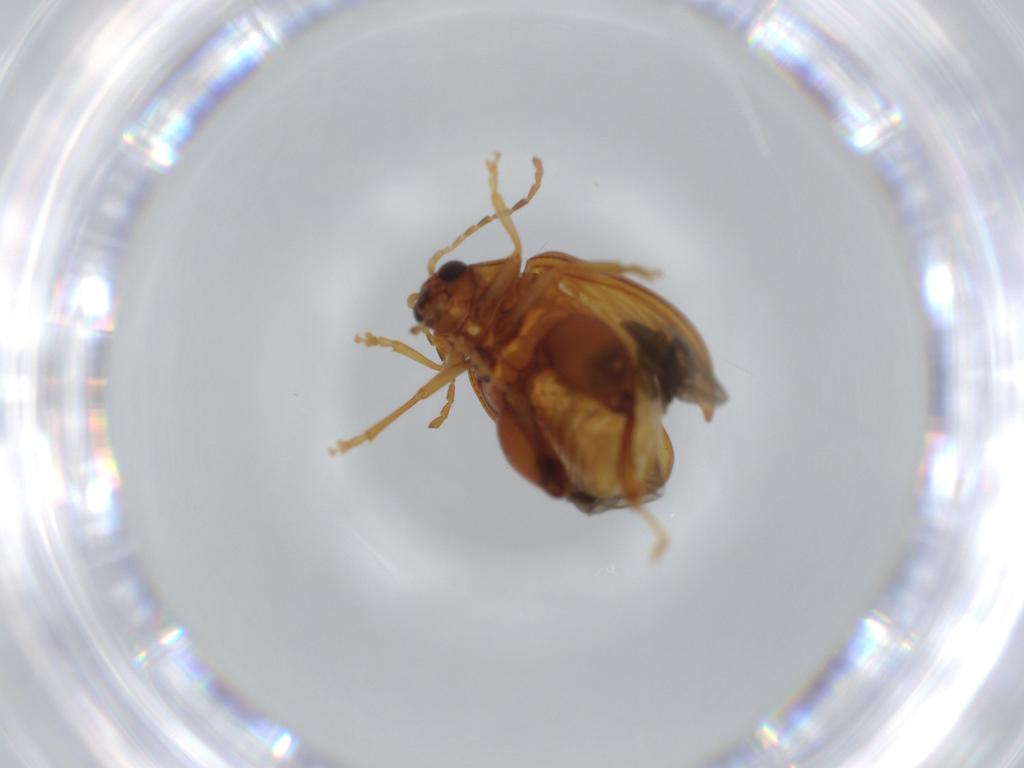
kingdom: Animalia
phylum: Arthropoda
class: Insecta
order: Coleoptera
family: Chrysomelidae
